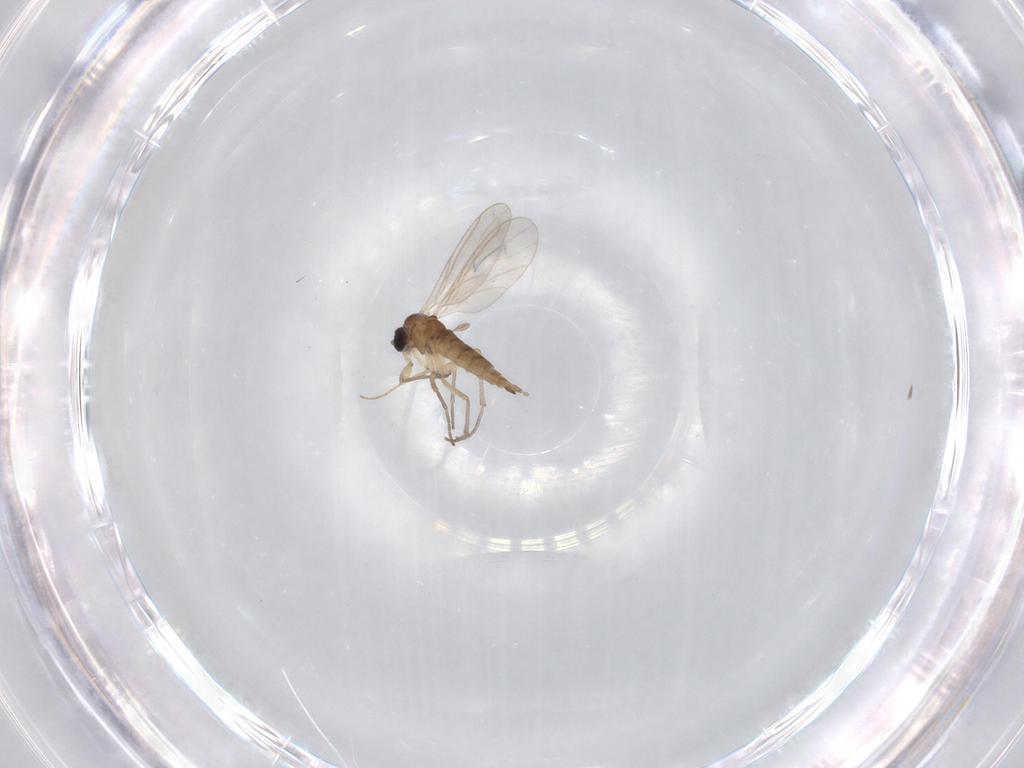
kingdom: Animalia
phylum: Arthropoda
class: Insecta
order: Diptera
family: Sciaridae
